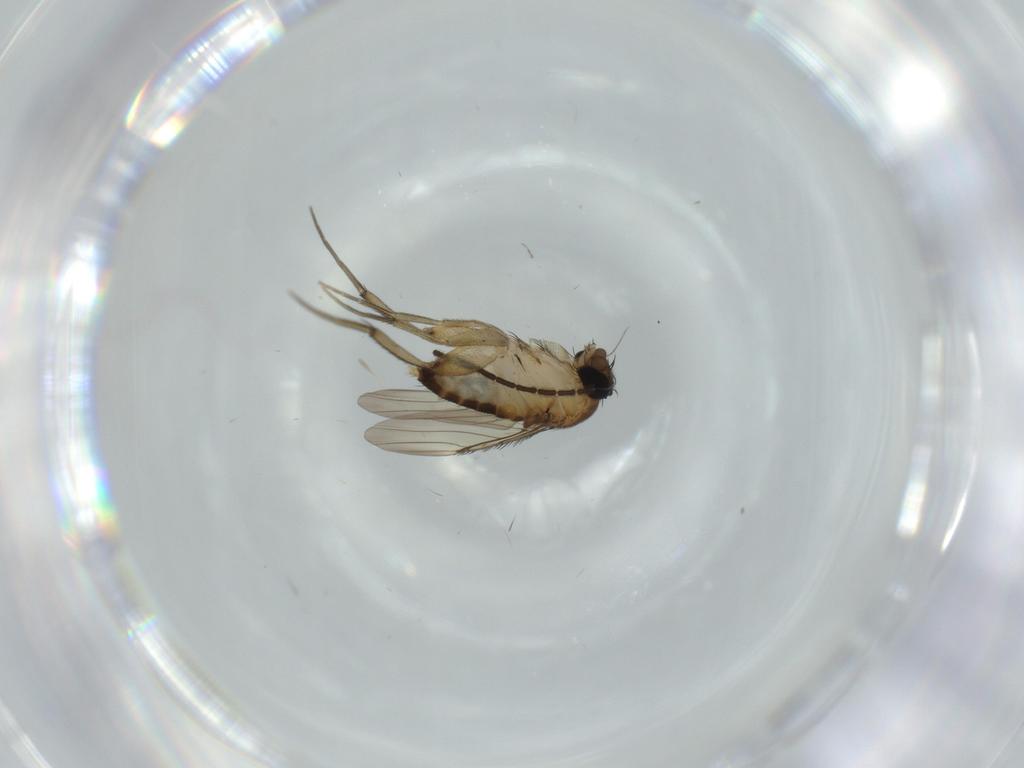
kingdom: Animalia
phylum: Arthropoda
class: Insecta
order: Diptera
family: Phoridae
